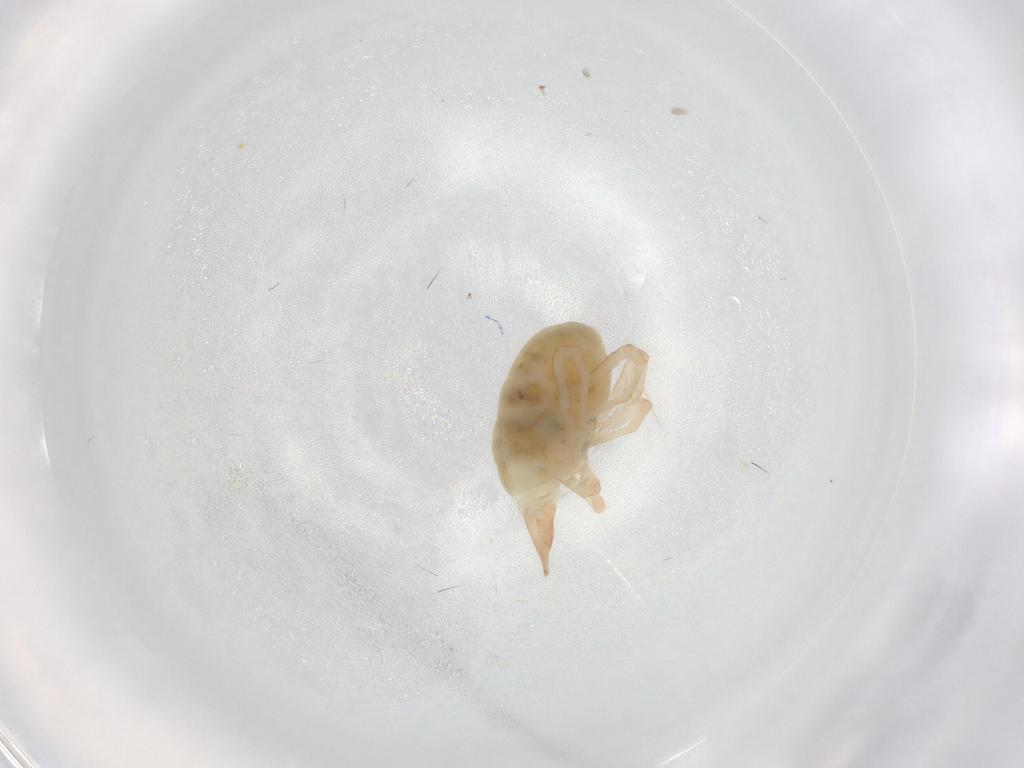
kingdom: Animalia
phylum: Arthropoda
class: Arachnida
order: Trombidiformes
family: Bdellidae
